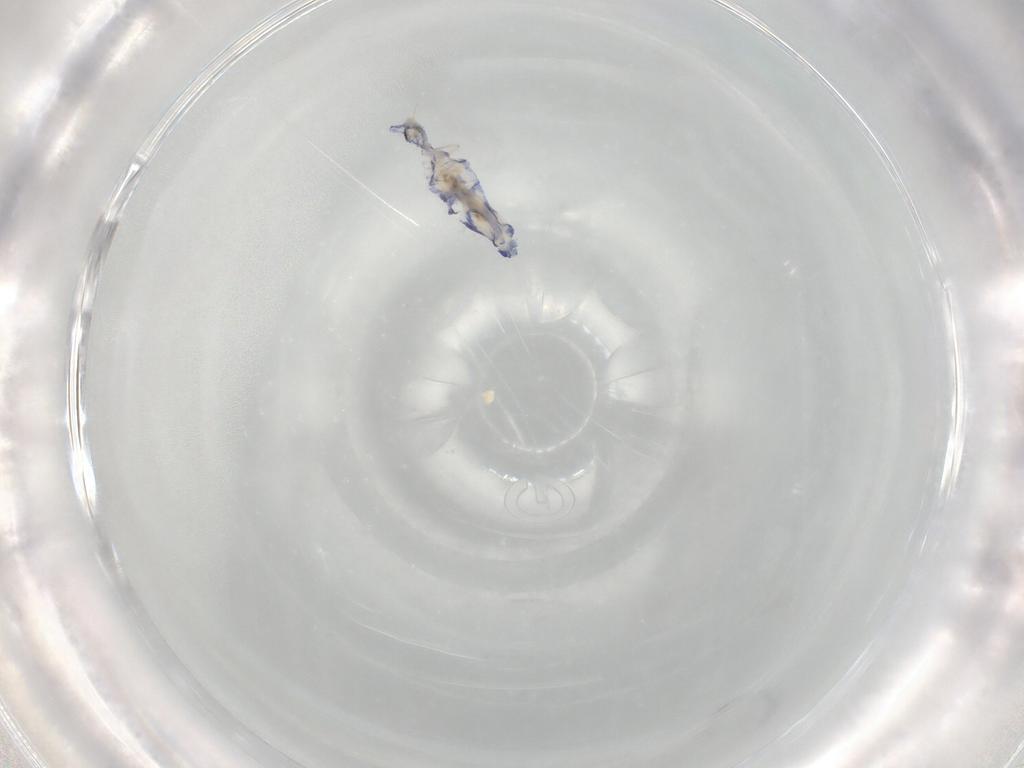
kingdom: Animalia
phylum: Arthropoda
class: Collembola
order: Entomobryomorpha
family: Entomobryidae
